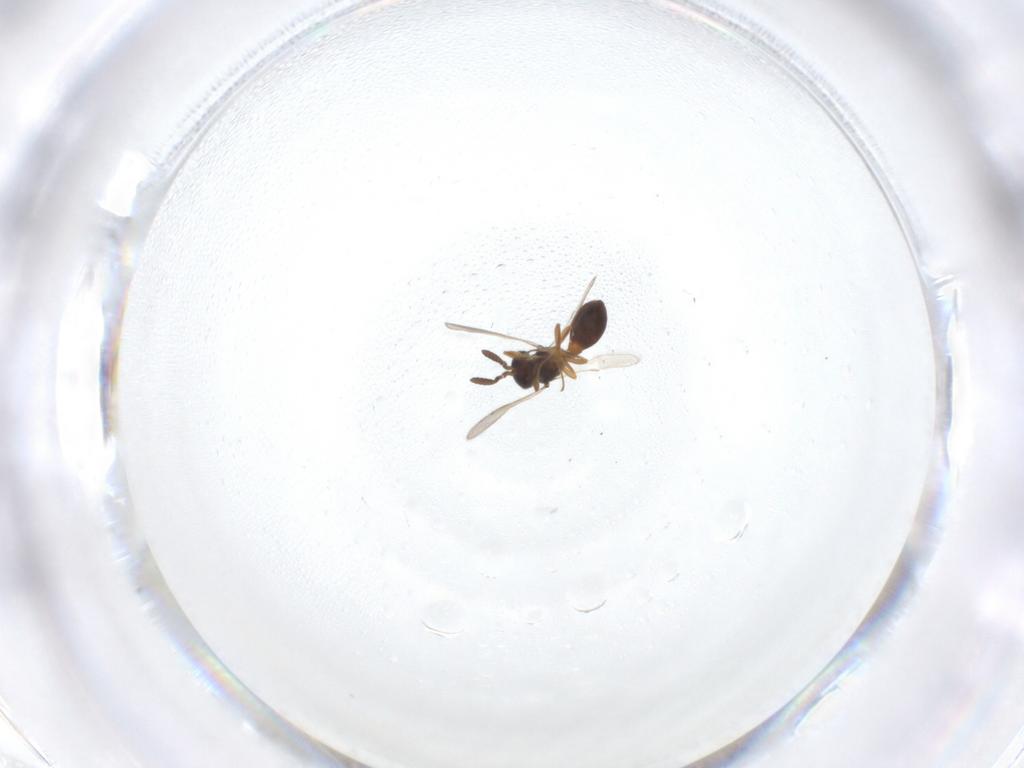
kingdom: Animalia
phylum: Arthropoda
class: Insecta
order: Hymenoptera
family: Scelionidae
